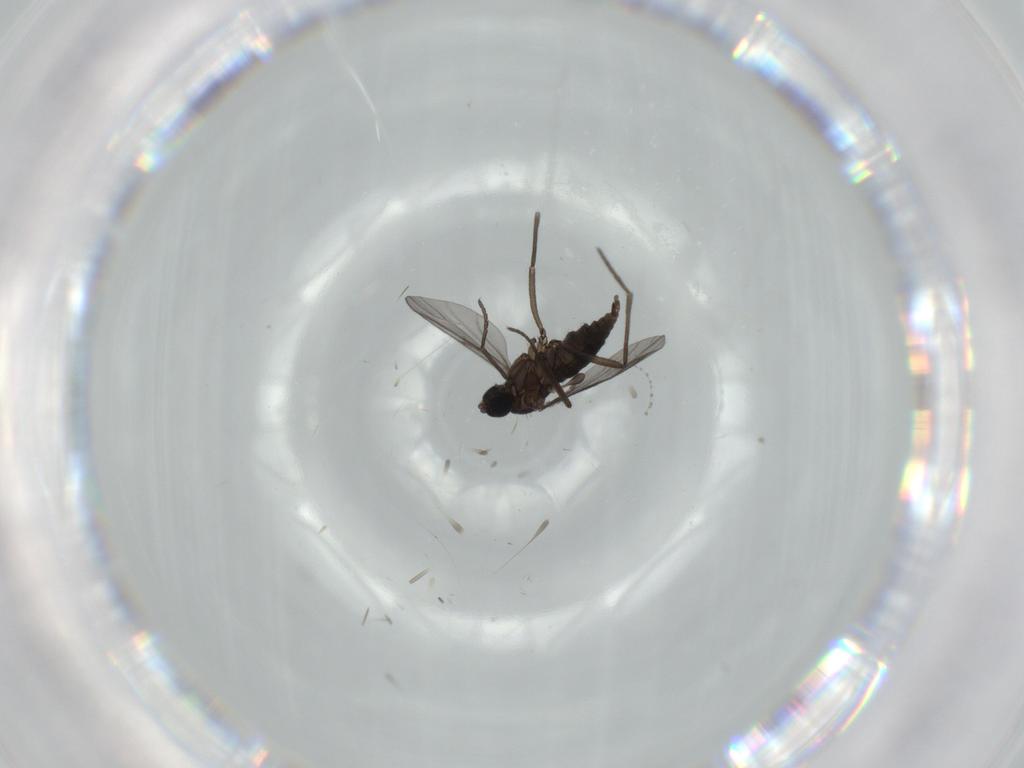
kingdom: Animalia
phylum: Arthropoda
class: Insecta
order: Diptera
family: Sciaridae
